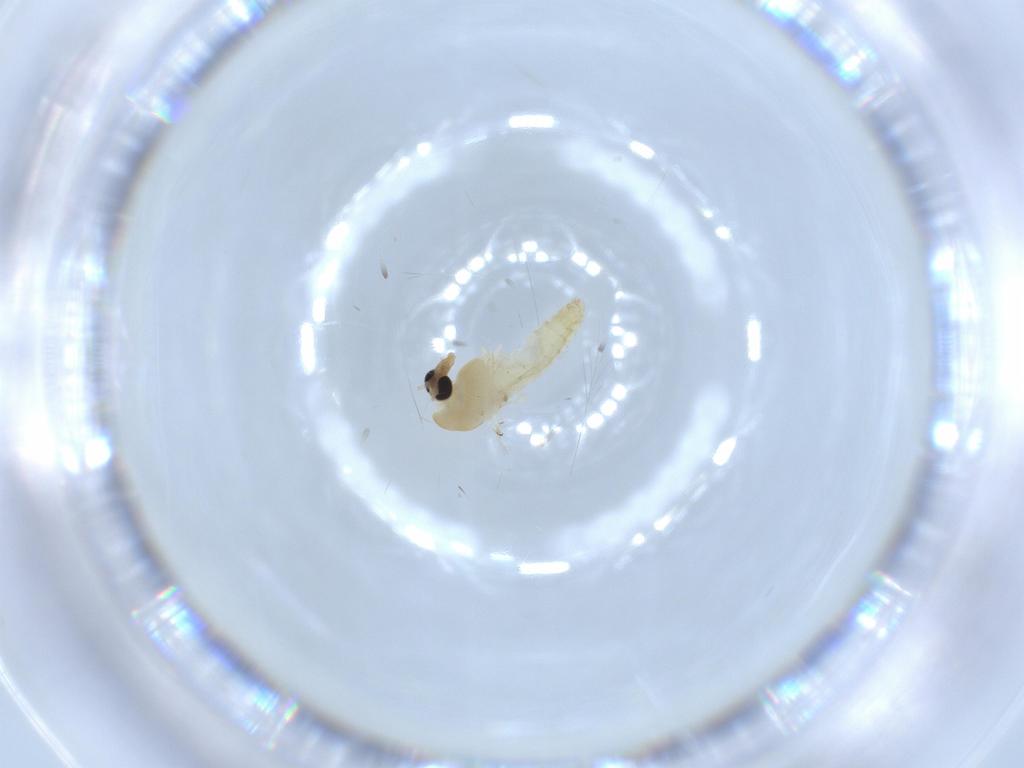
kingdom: Animalia
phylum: Arthropoda
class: Insecta
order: Diptera
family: Chironomidae
